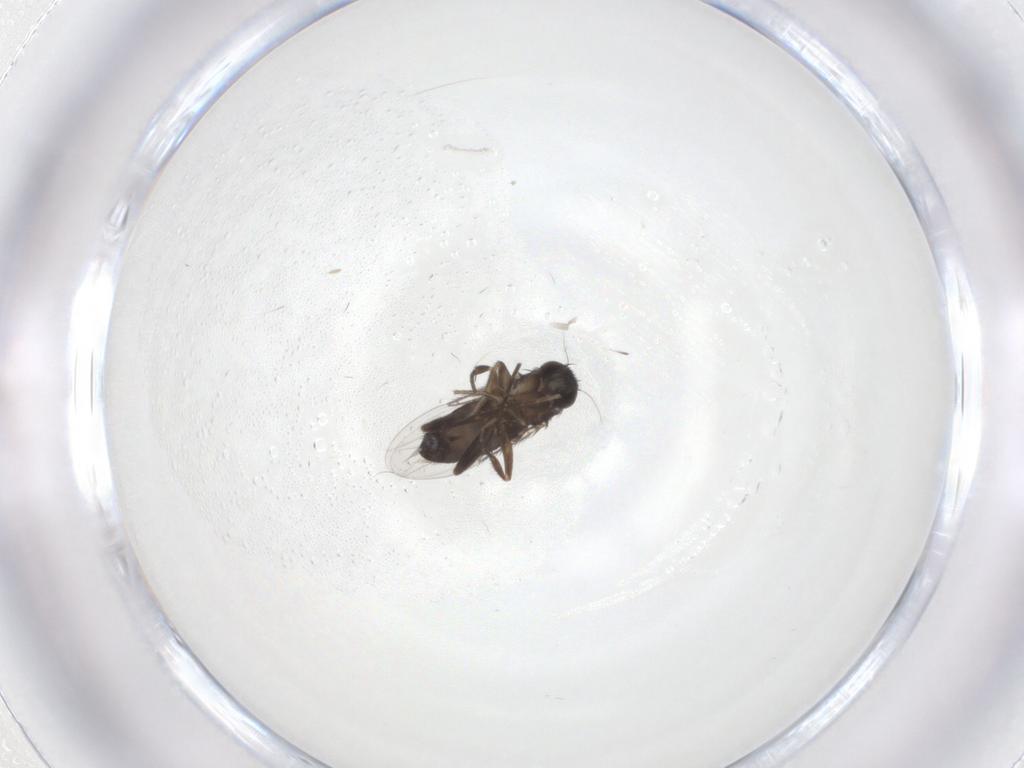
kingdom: Animalia
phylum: Arthropoda
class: Insecta
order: Diptera
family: Phoridae
